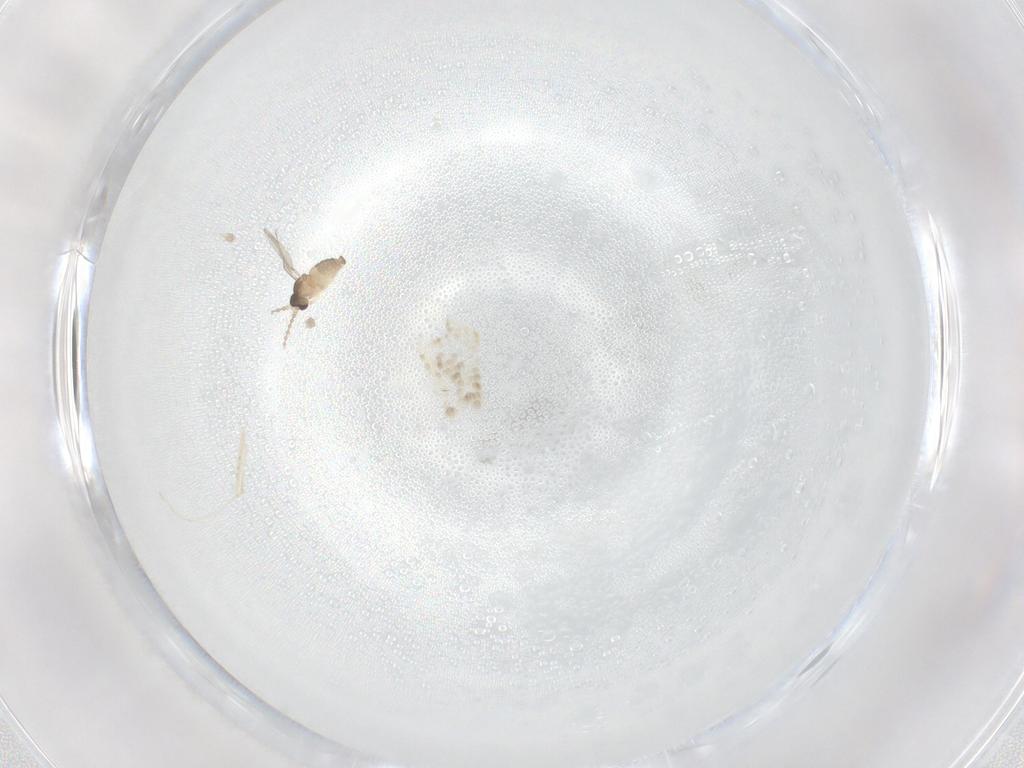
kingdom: Animalia
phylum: Arthropoda
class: Insecta
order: Diptera
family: Cecidomyiidae
